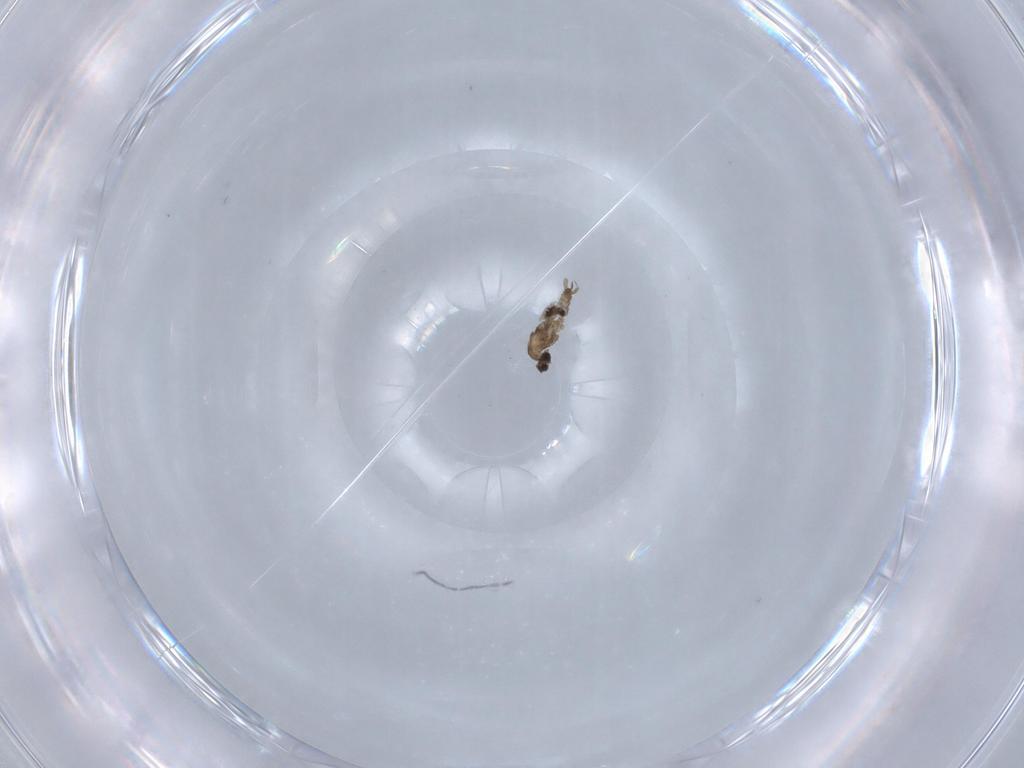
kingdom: Animalia
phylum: Arthropoda
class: Insecta
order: Diptera
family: Cecidomyiidae
